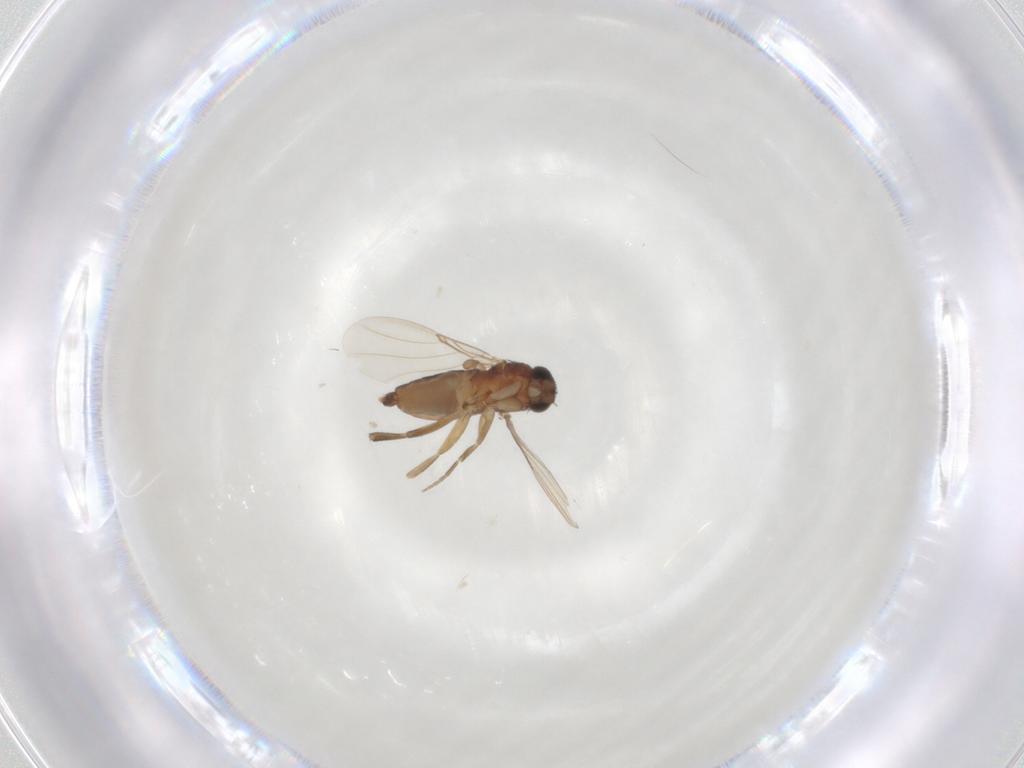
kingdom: Animalia
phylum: Arthropoda
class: Insecta
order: Diptera
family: Phoridae
